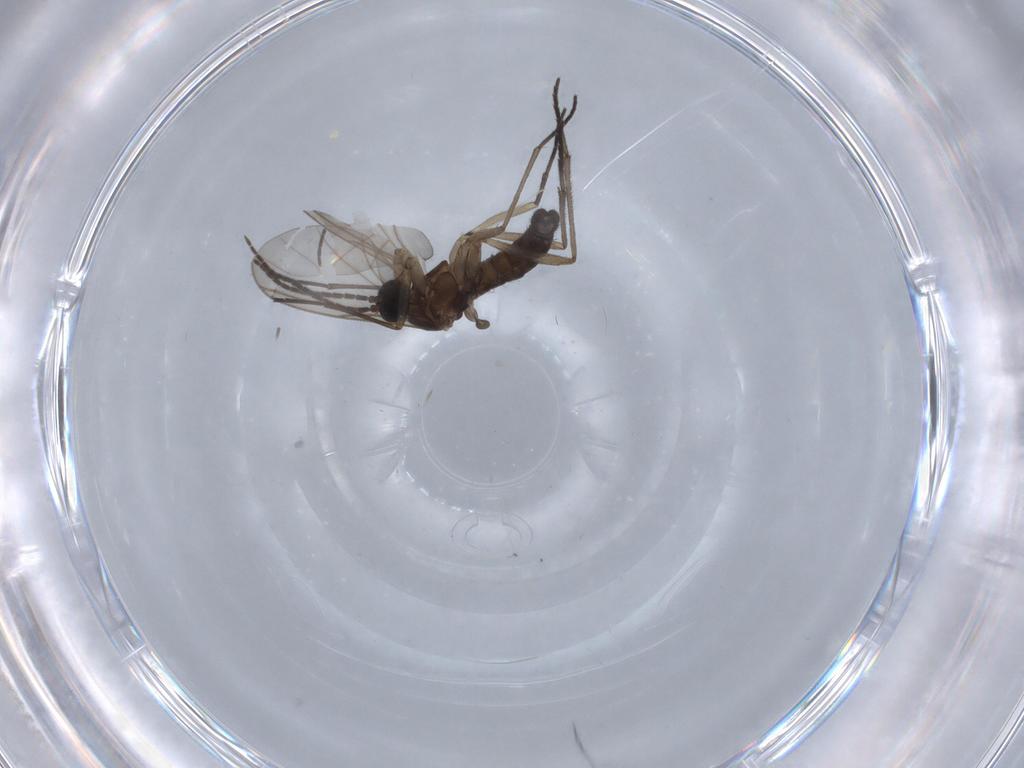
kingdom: Animalia
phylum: Arthropoda
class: Insecta
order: Diptera
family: Sciaridae
